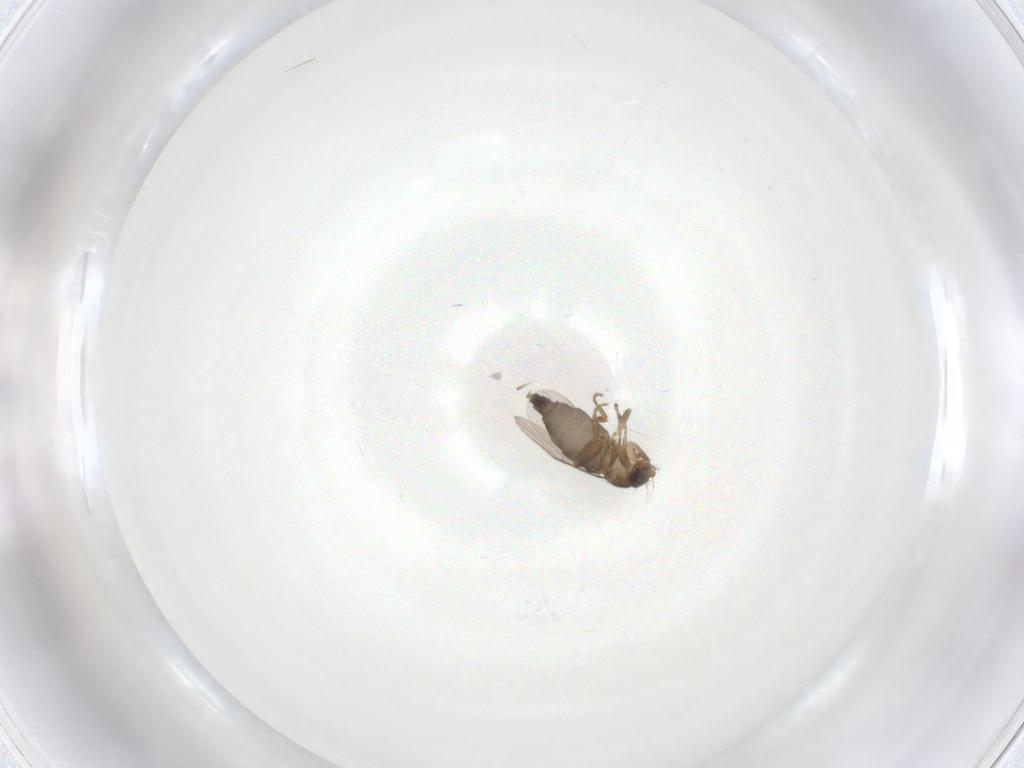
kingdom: Animalia
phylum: Arthropoda
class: Insecta
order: Diptera
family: Phoridae
